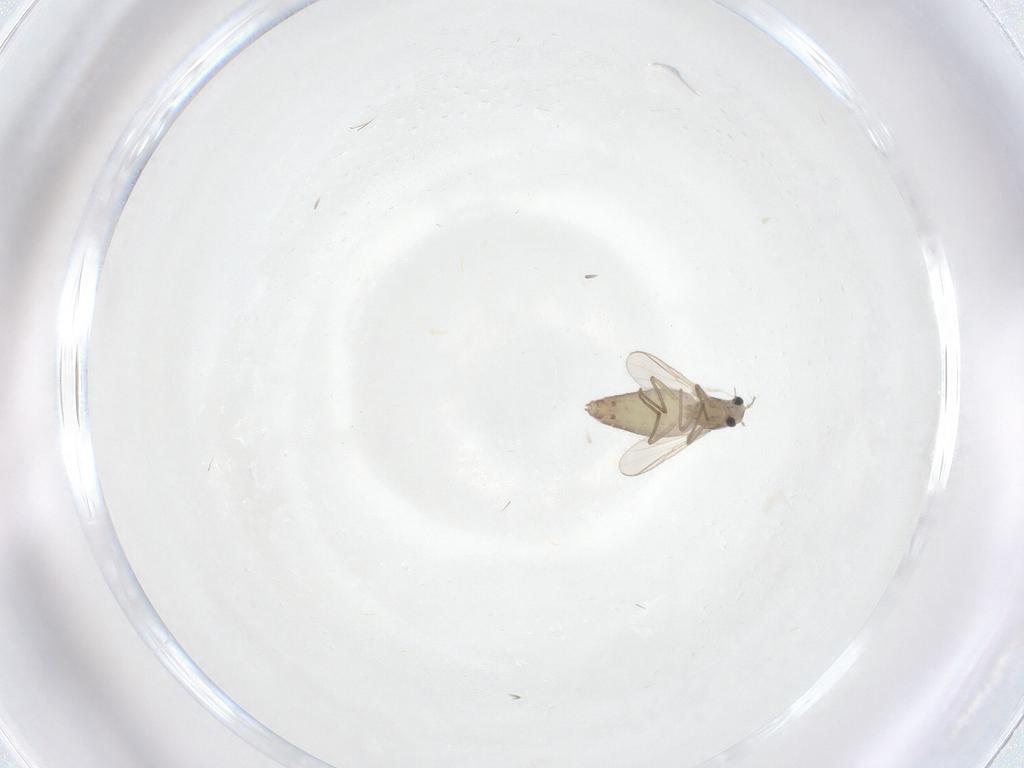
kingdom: Animalia
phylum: Arthropoda
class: Insecta
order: Diptera
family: Chironomidae
